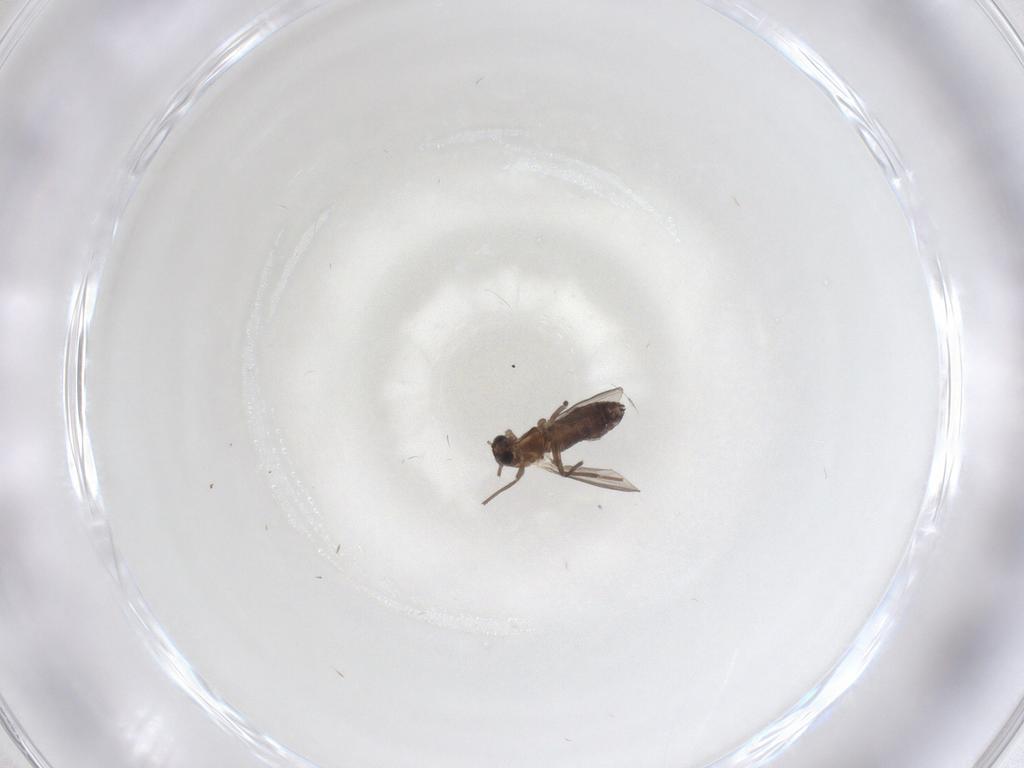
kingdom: Animalia
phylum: Arthropoda
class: Insecta
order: Diptera
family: Chironomidae
